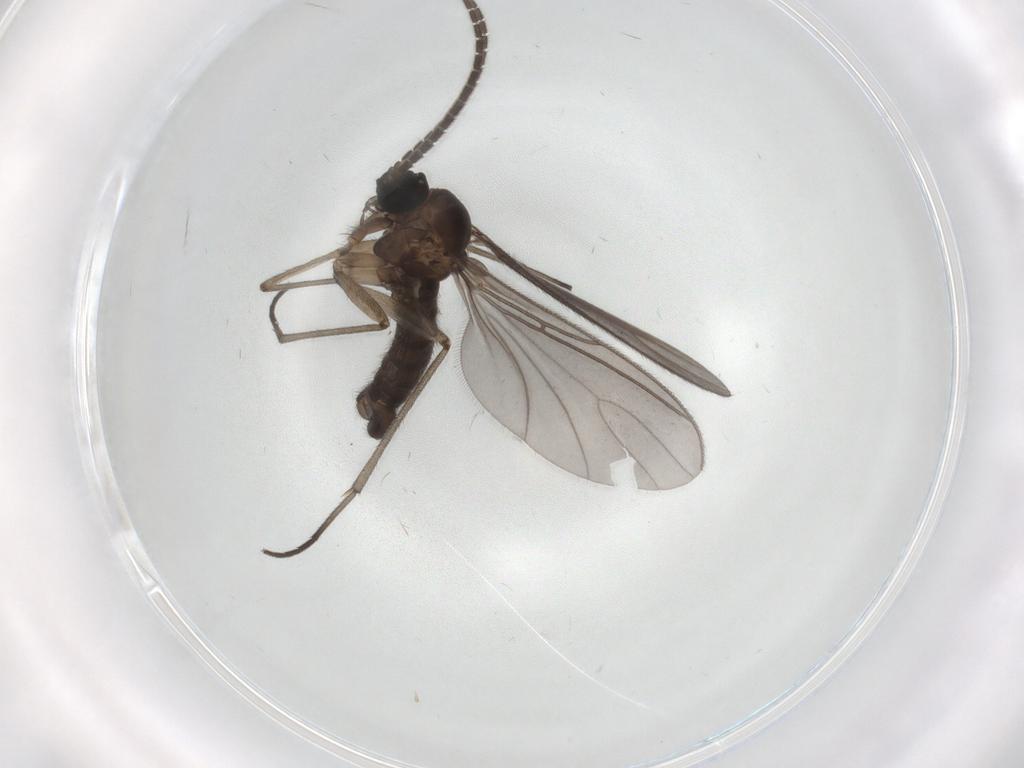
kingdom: Animalia
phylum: Arthropoda
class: Insecta
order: Diptera
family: Sciaridae
